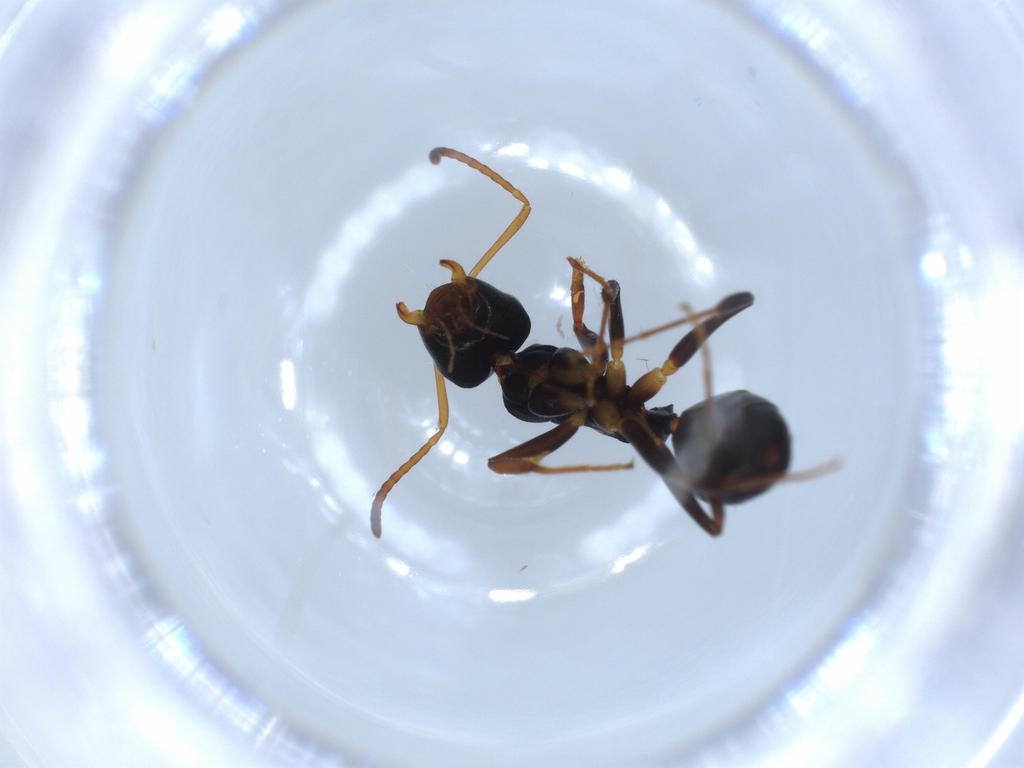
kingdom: Animalia
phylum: Arthropoda
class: Insecta
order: Hymenoptera
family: Formicidae
